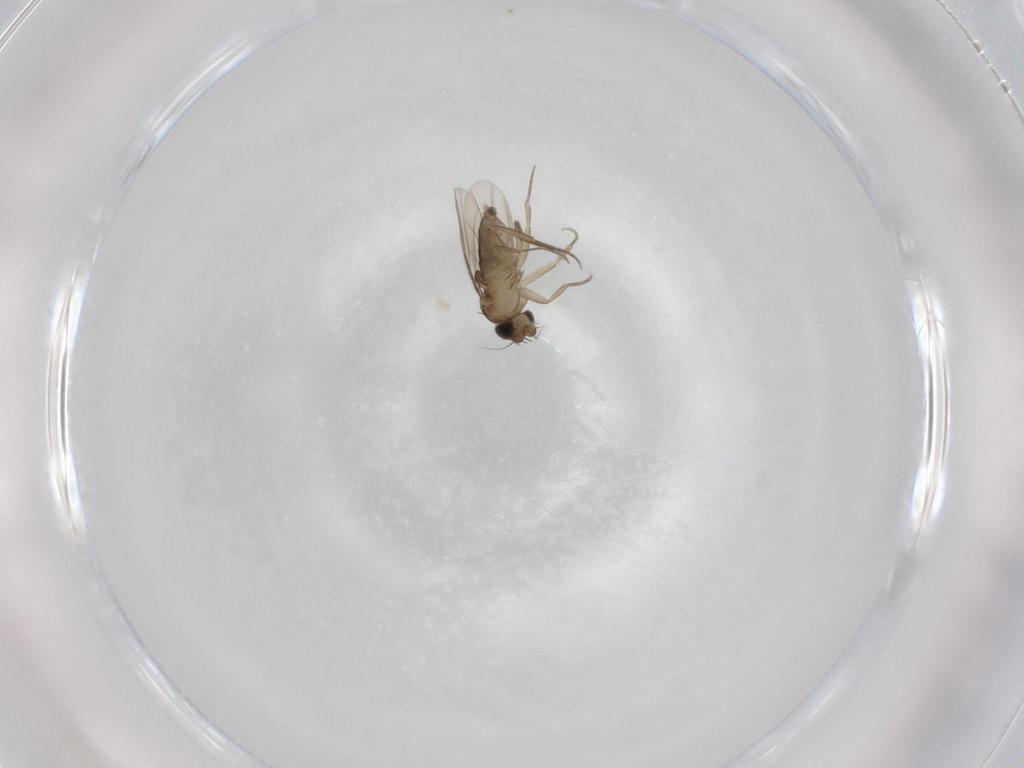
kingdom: Animalia
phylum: Arthropoda
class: Insecta
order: Diptera
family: Phoridae
